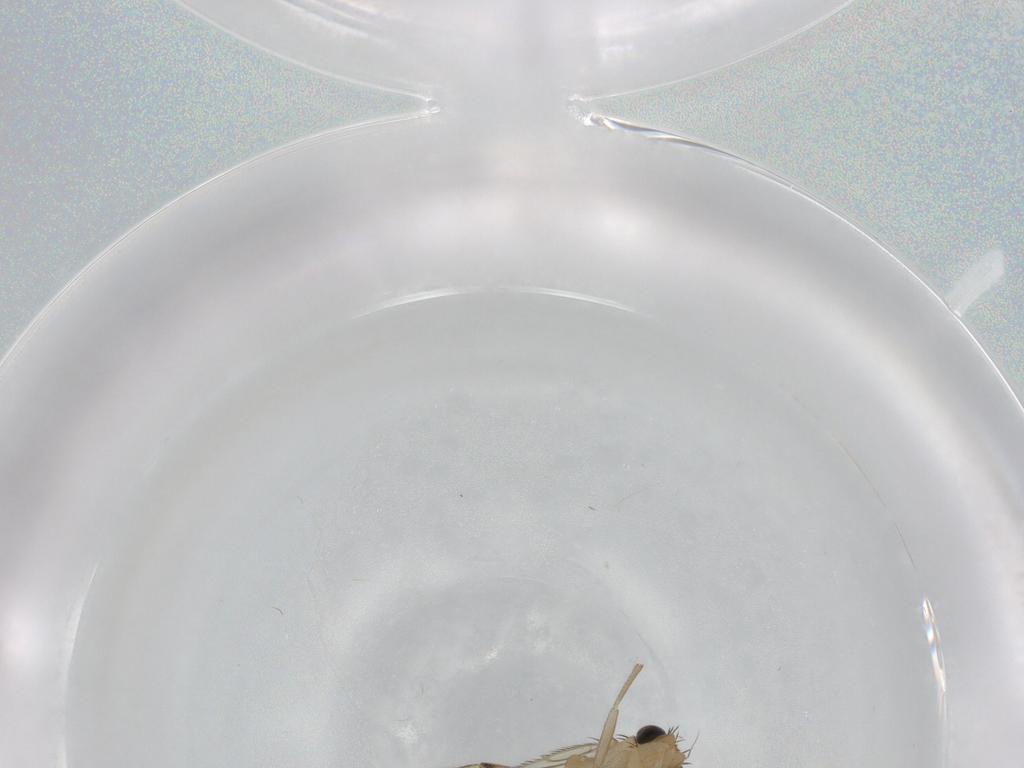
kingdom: Animalia
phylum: Arthropoda
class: Insecta
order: Diptera
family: Phoridae
